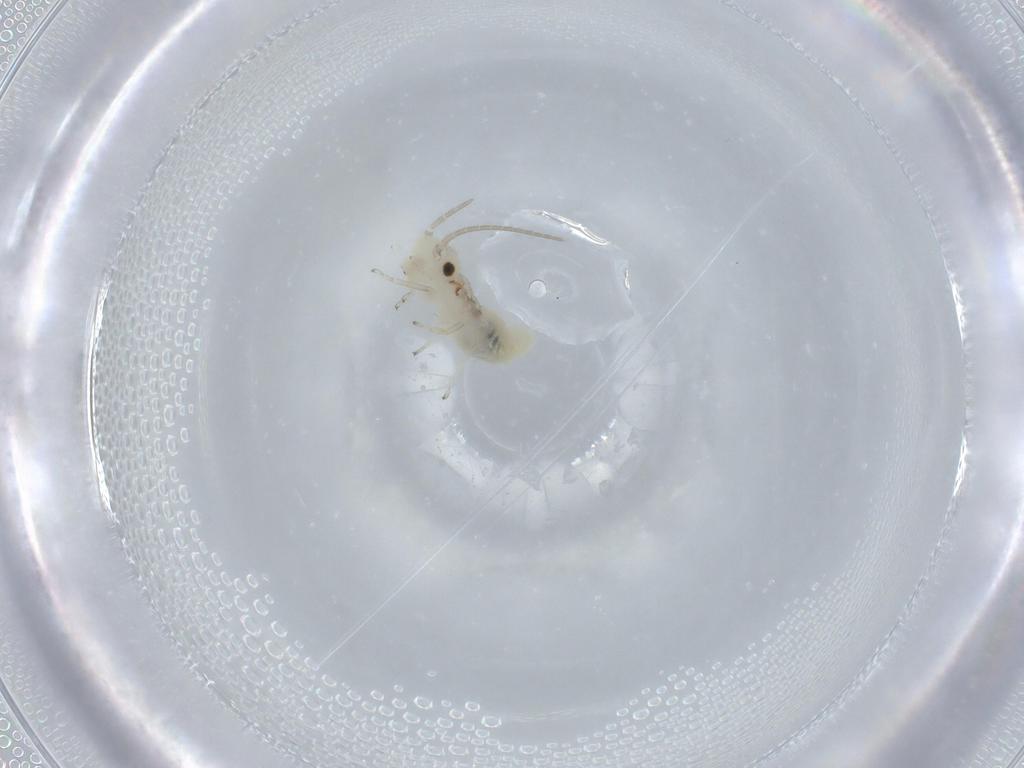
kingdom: Animalia
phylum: Arthropoda
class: Insecta
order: Psocodea
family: Caeciliusidae
